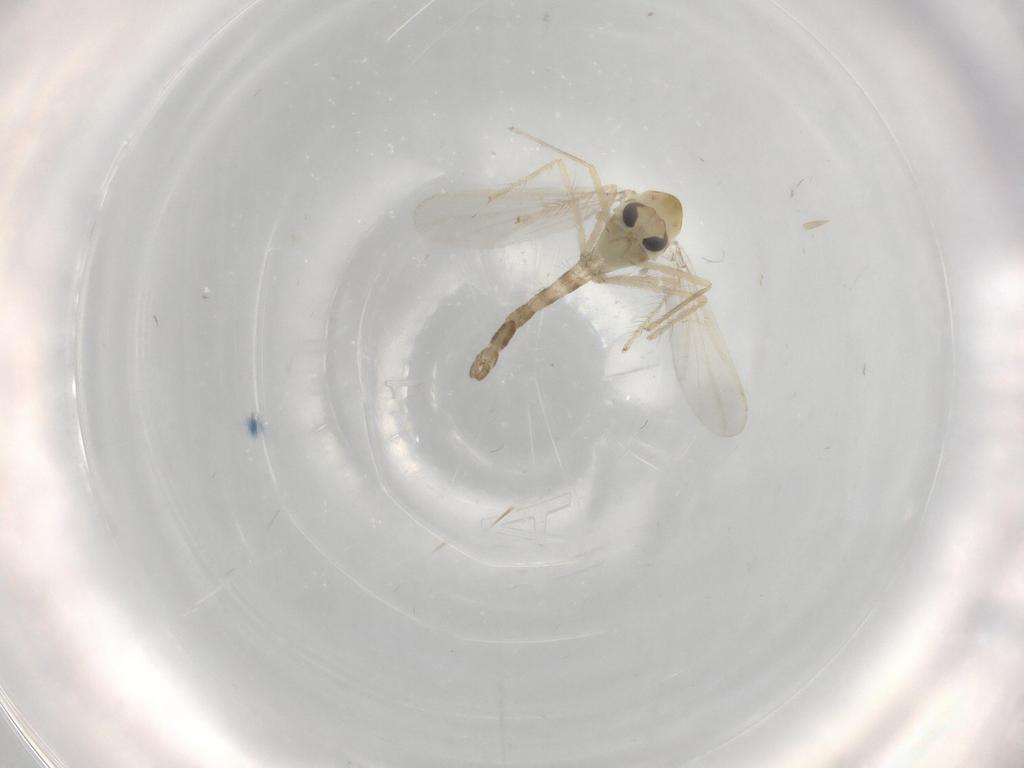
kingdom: Animalia
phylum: Arthropoda
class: Insecta
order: Diptera
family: Chironomidae
